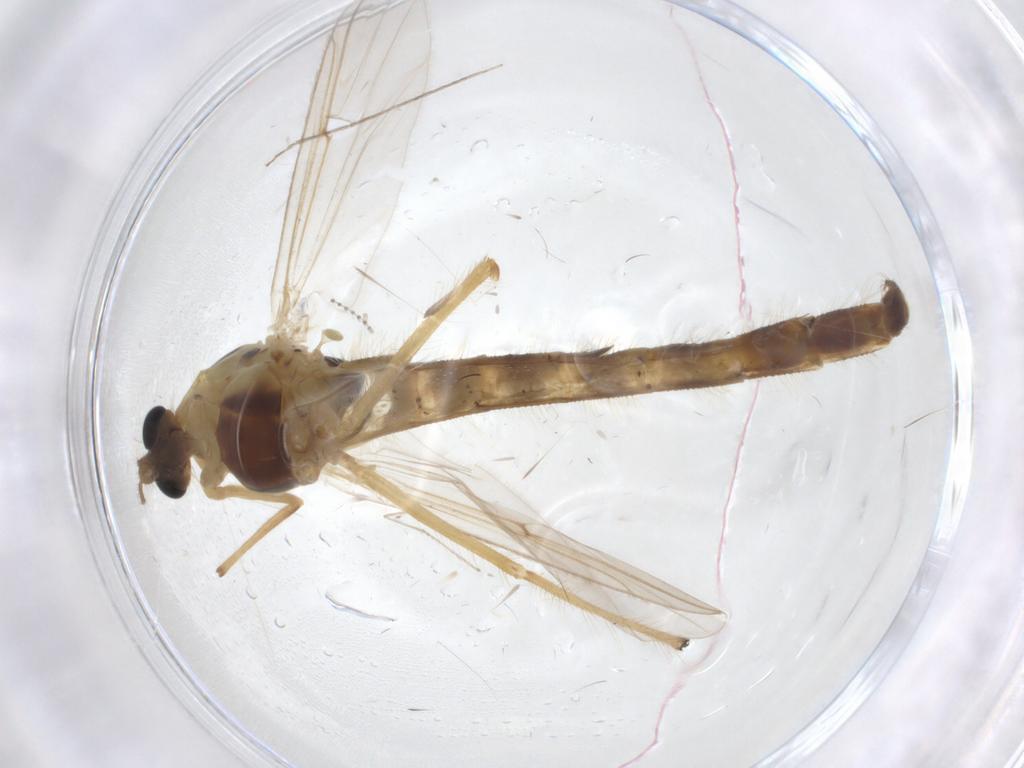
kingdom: Animalia
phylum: Arthropoda
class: Insecta
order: Diptera
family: Chironomidae
